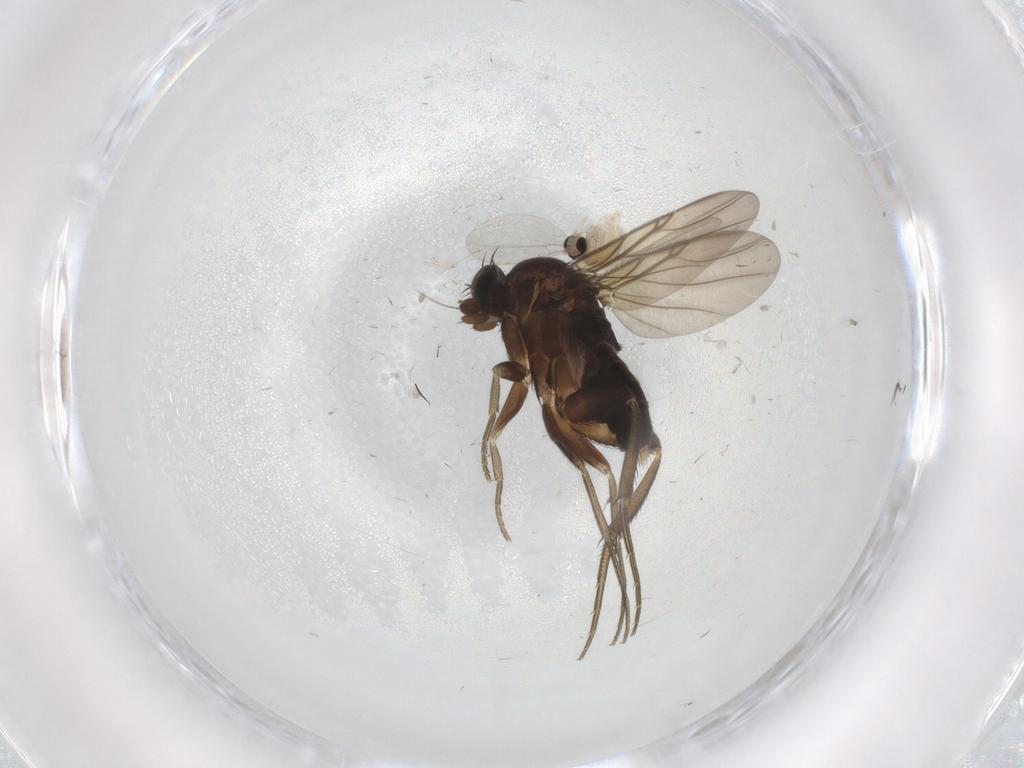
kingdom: Animalia
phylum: Arthropoda
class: Insecta
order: Diptera
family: Cecidomyiidae
